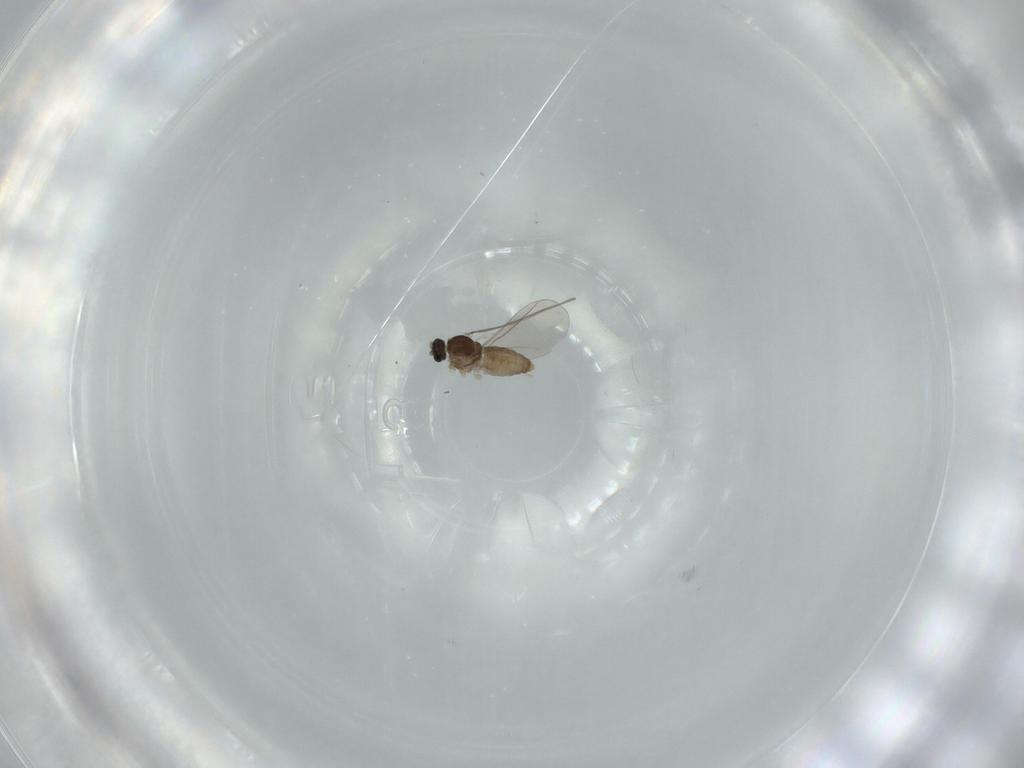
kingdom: Animalia
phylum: Arthropoda
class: Insecta
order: Diptera
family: Cecidomyiidae
